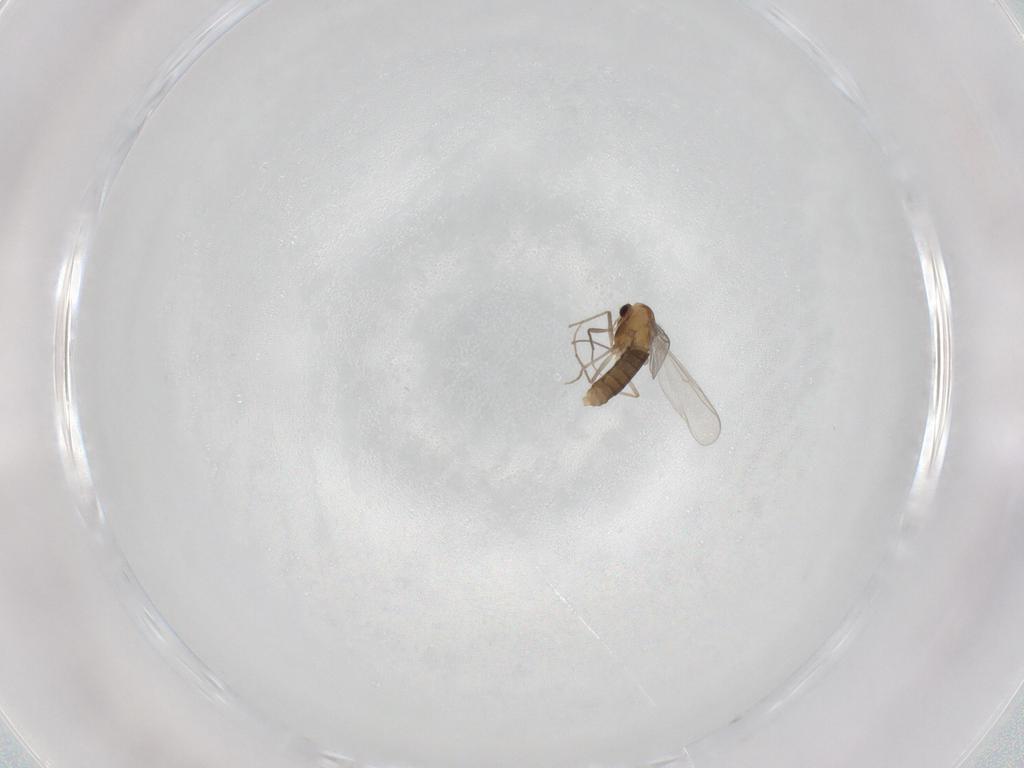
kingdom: Animalia
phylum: Arthropoda
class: Insecta
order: Diptera
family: Chironomidae
